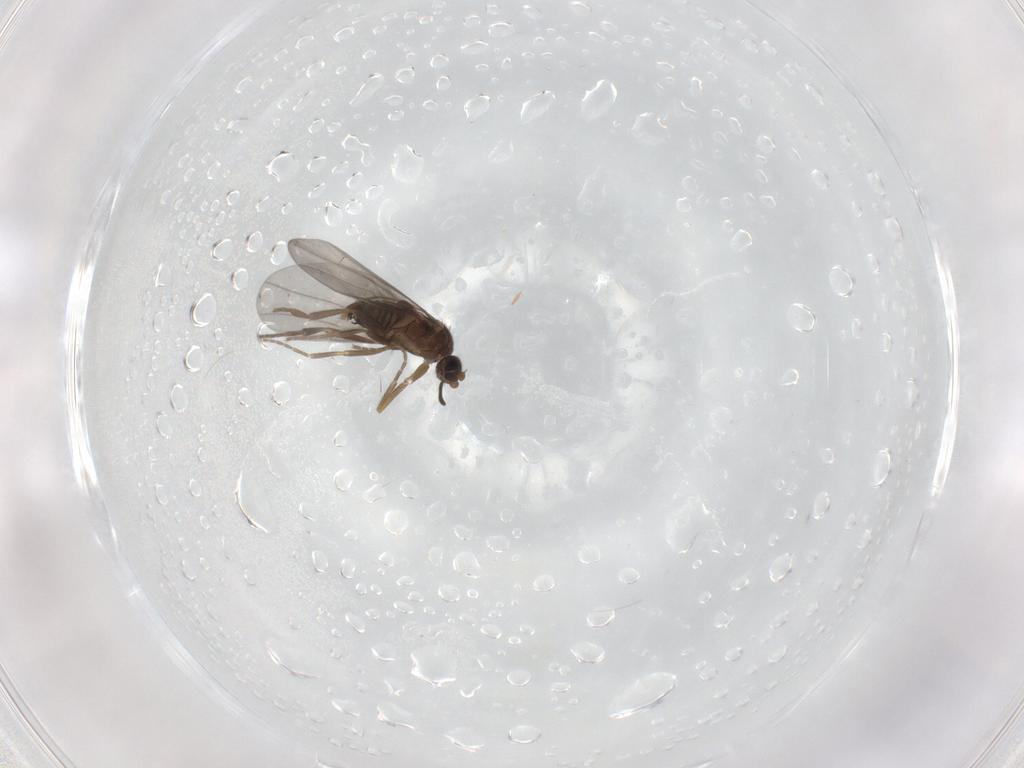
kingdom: Animalia
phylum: Arthropoda
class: Insecta
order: Diptera
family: Phoridae
